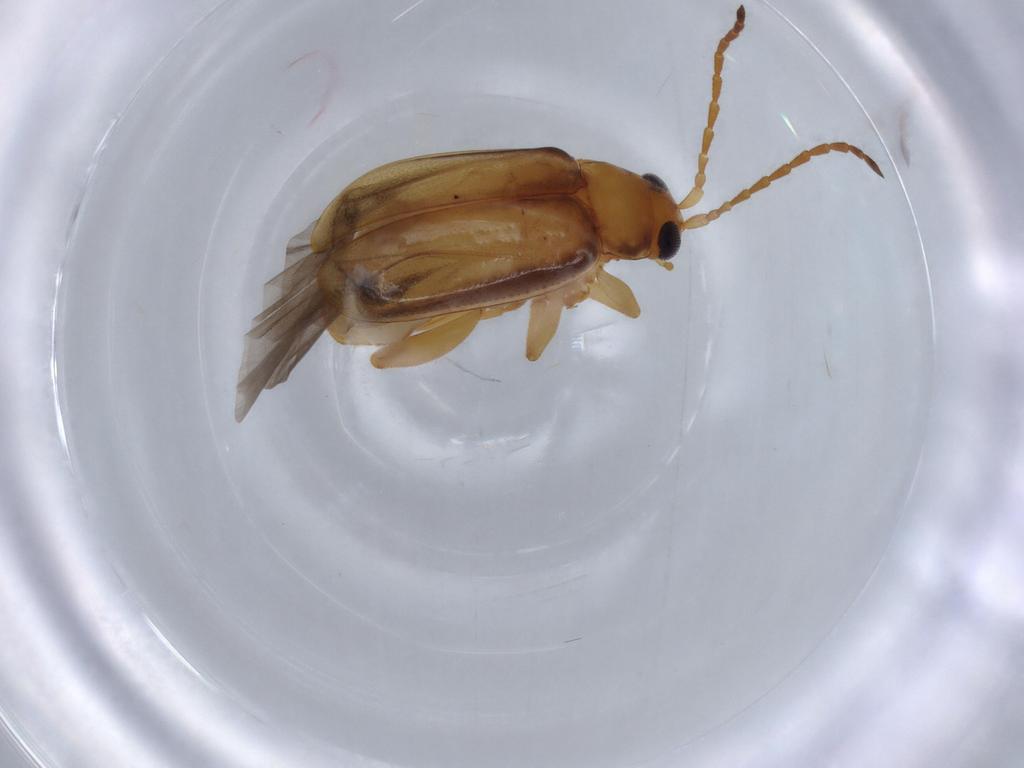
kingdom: Animalia
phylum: Arthropoda
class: Insecta
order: Coleoptera
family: Chrysomelidae
